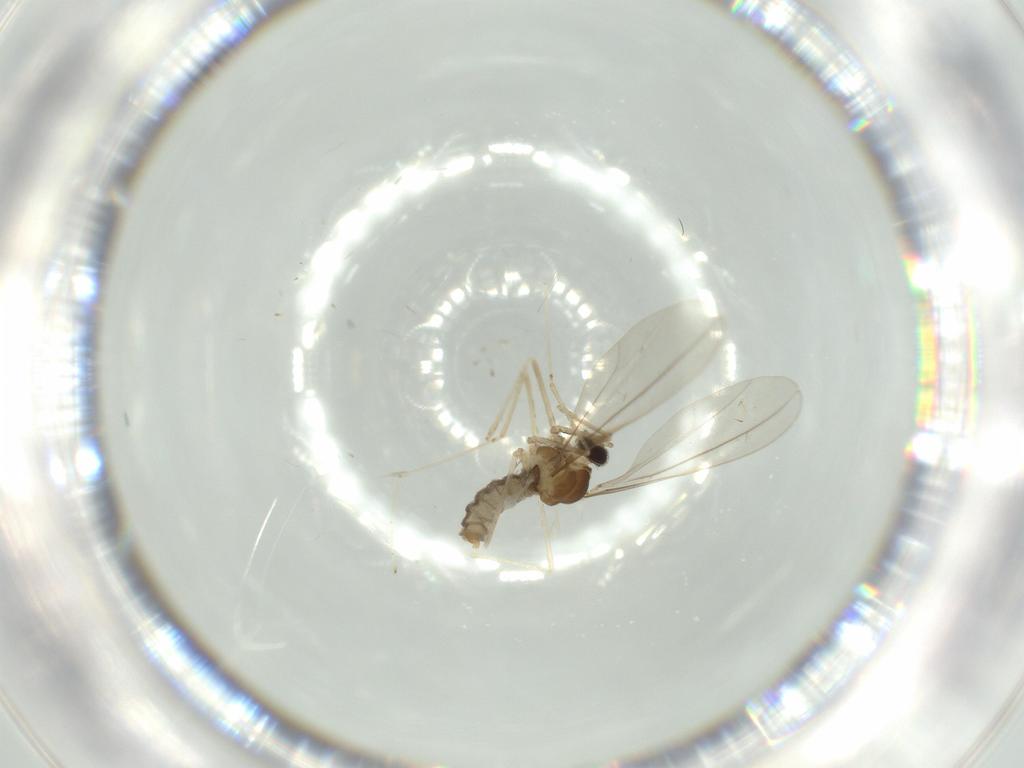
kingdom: Animalia
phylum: Arthropoda
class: Insecta
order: Diptera
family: Cecidomyiidae
